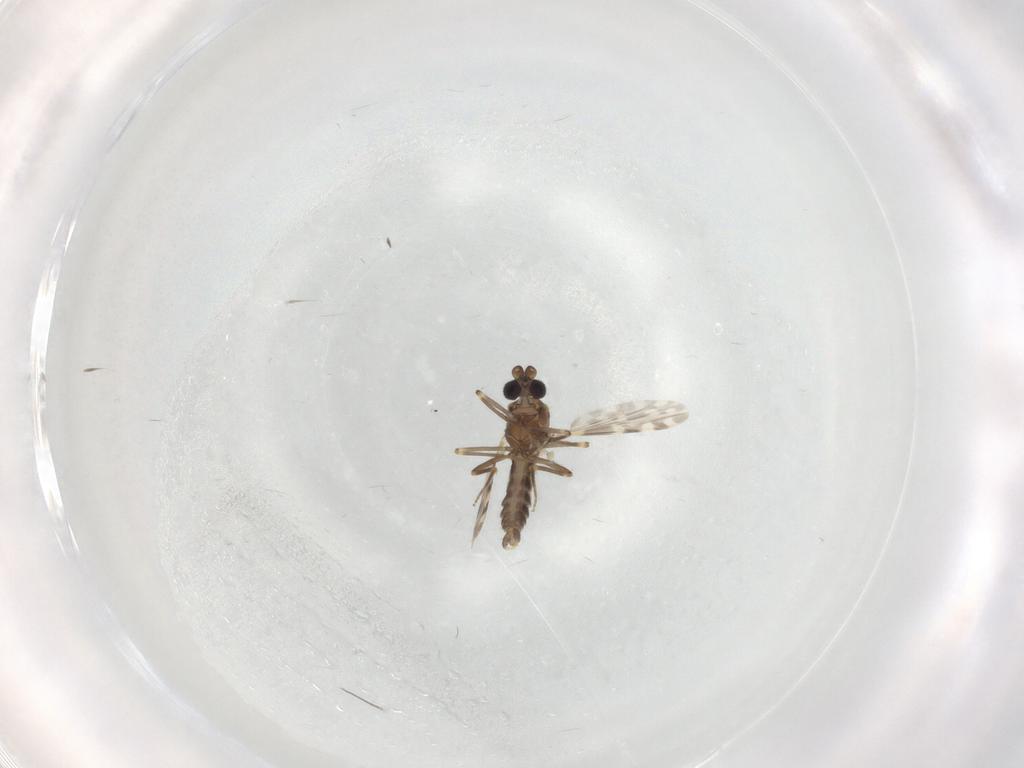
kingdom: Animalia
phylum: Arthropoda
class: Insecta
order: Diptera
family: Ceratopogonidae
